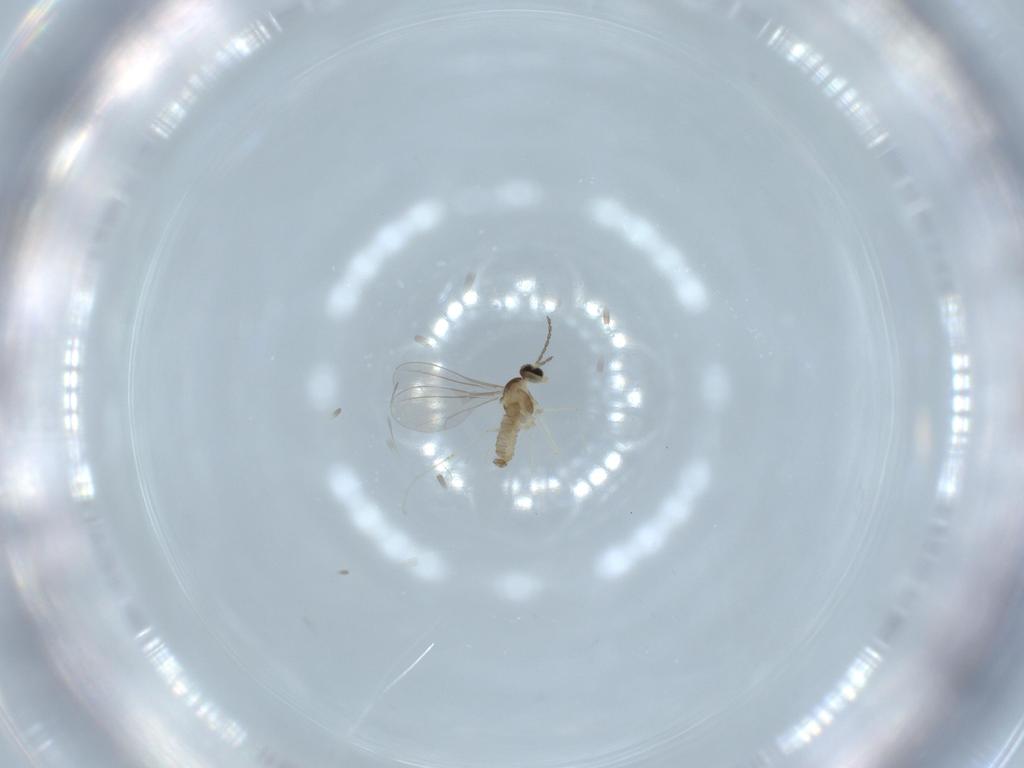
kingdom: Animalia
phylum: Arthropoda
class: Insecta
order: Diptera
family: Cecidomyiidae
